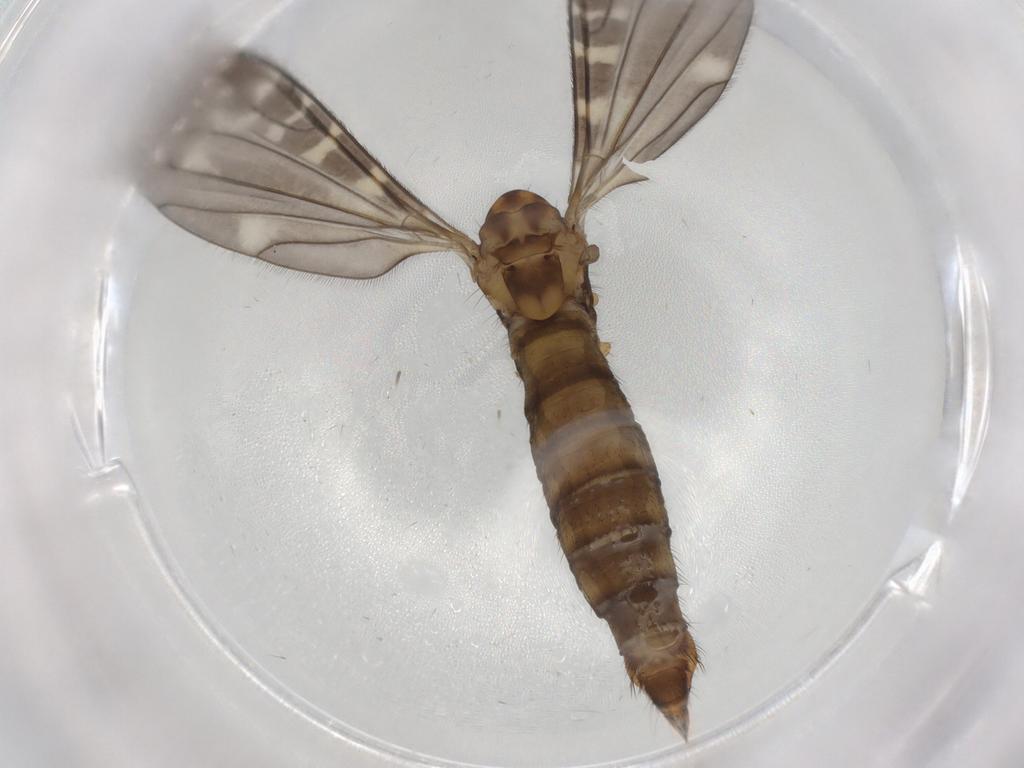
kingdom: Animalia
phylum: Arthropoda
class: Insecta
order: Diptera
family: Limoniidae
